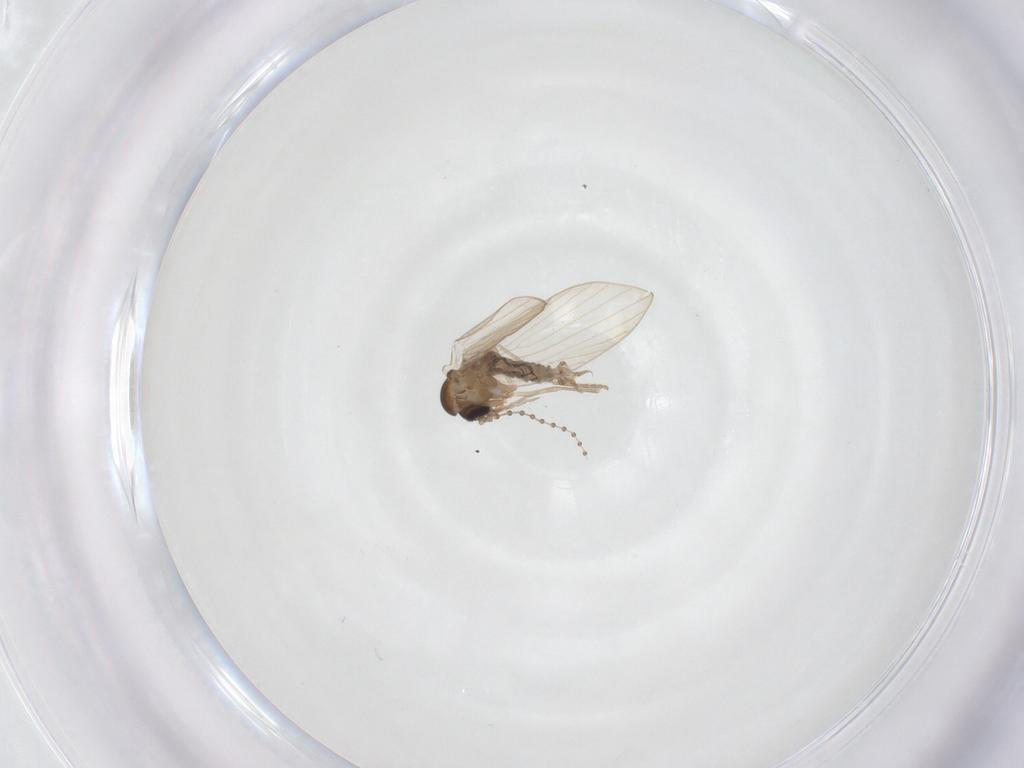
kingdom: Animalia
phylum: Arthropoda
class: Insecta
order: Diptera
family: Psychodidae
